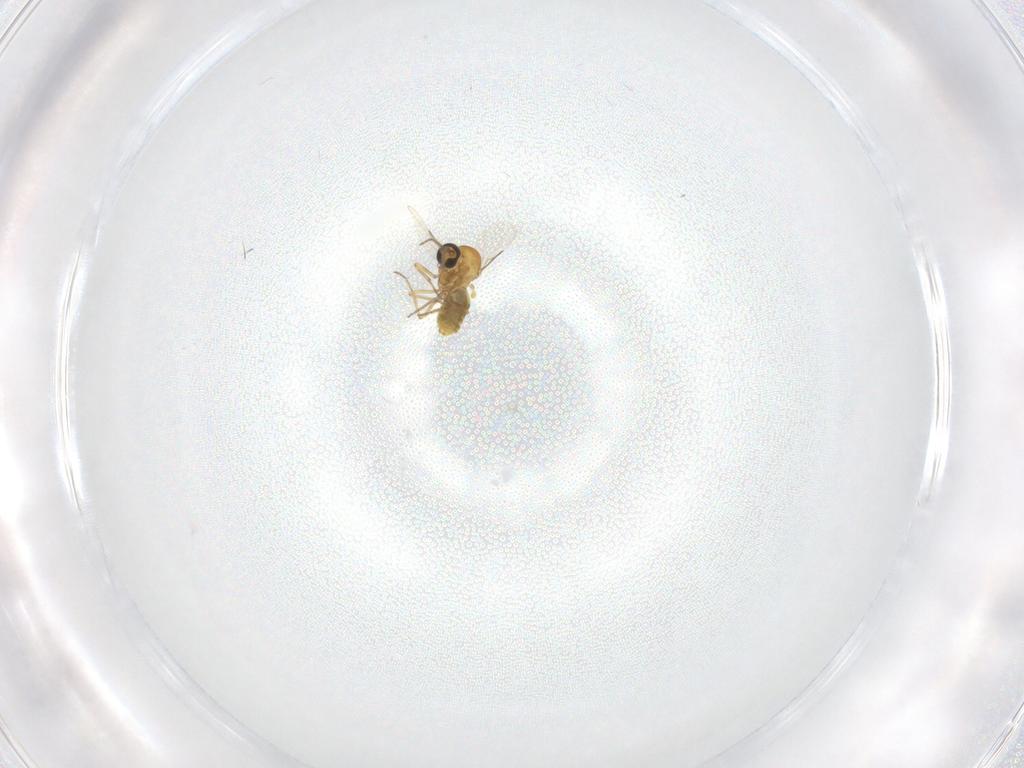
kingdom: Animalia
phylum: Arthropoda
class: Insecta
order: Diptera
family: Ceratopogonidae
